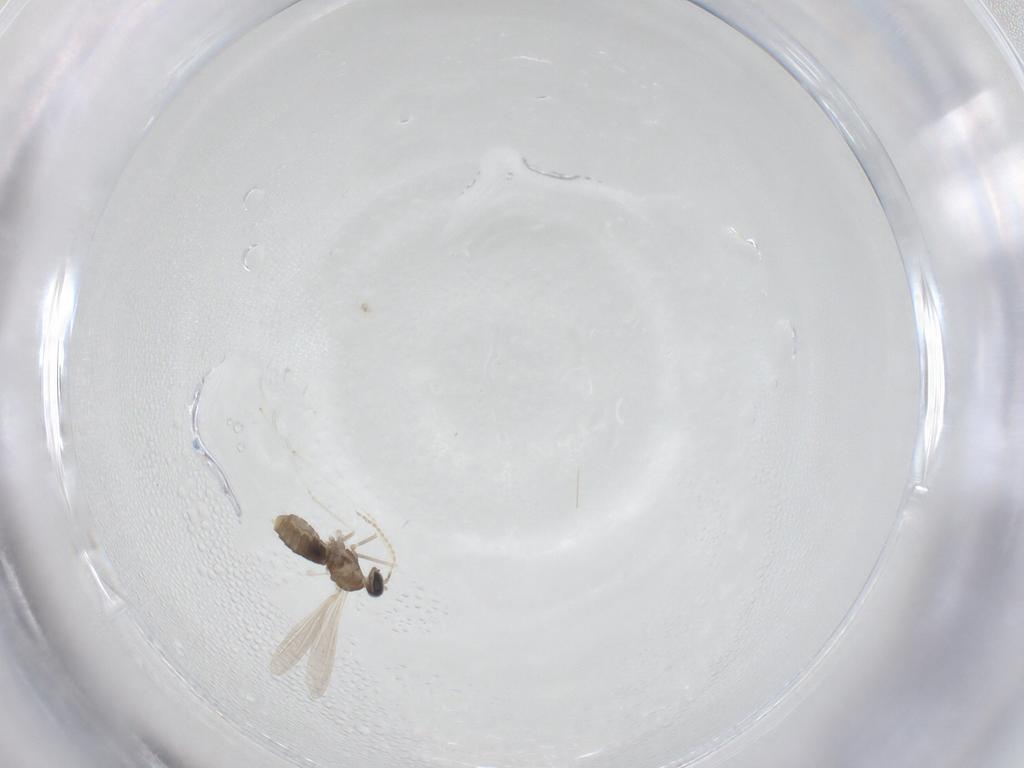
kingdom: Animalia
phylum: Arthropoda
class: Insecta
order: Diptera
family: Cecidomyiidae
